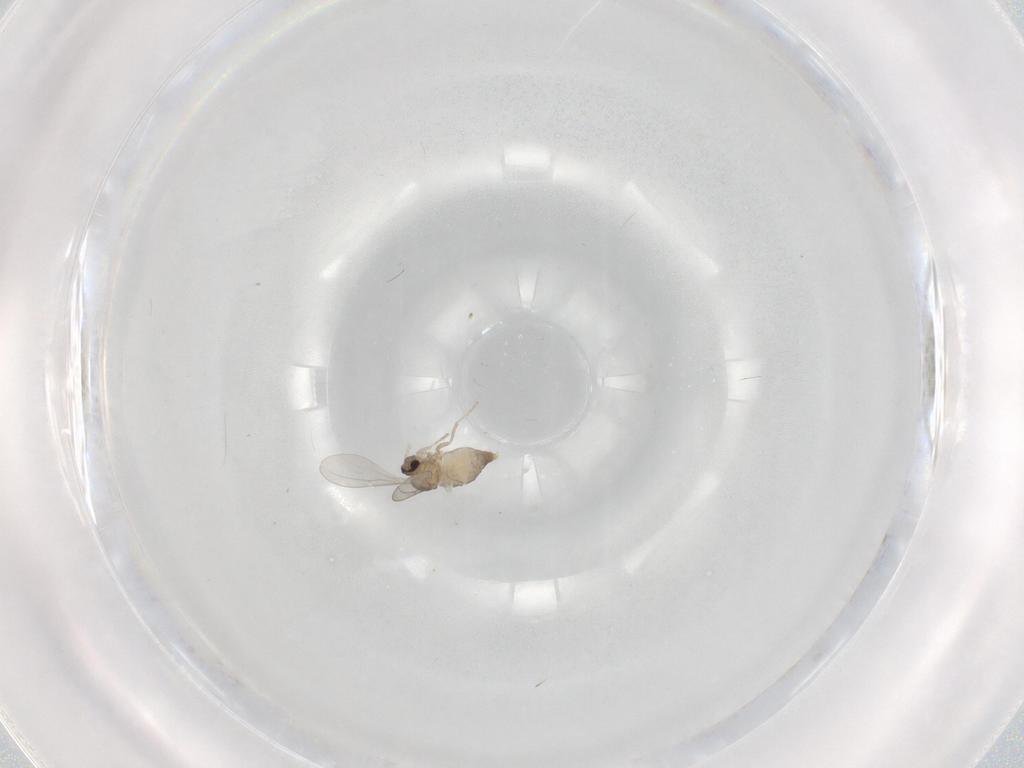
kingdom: Animalia
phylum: Arthropoda
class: Insecta
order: Diptera
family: Cecidomyiidae
